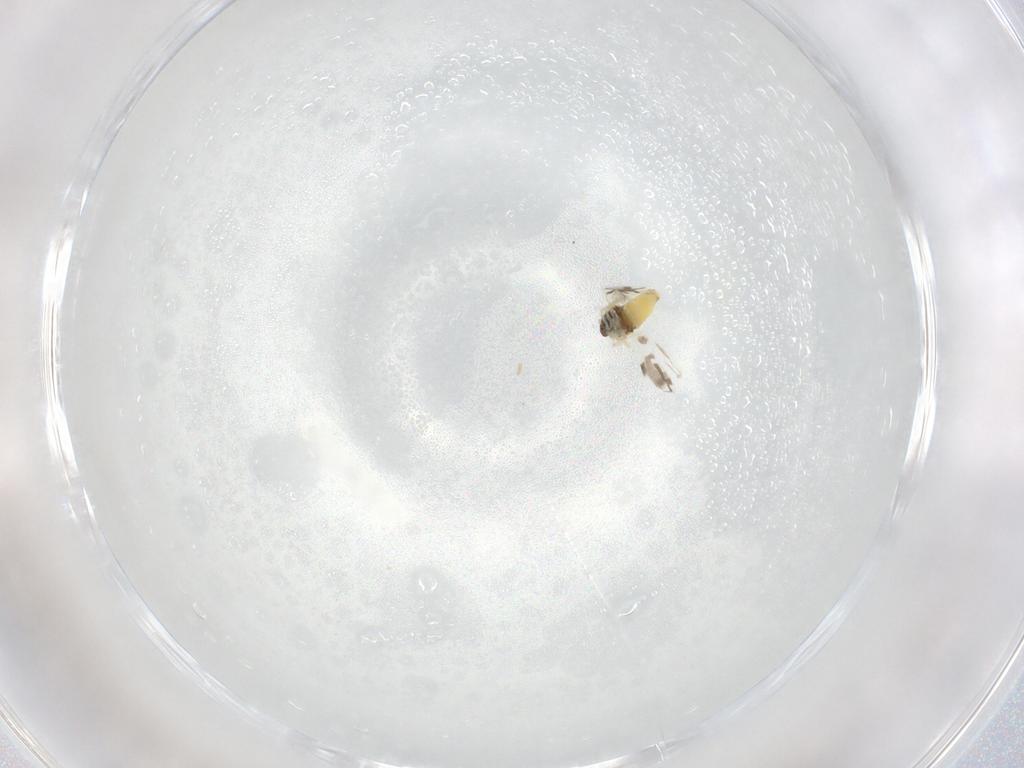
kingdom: Animalia
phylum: Arthropoda
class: Insecta
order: Hemiptera
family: Aleyrodidae
